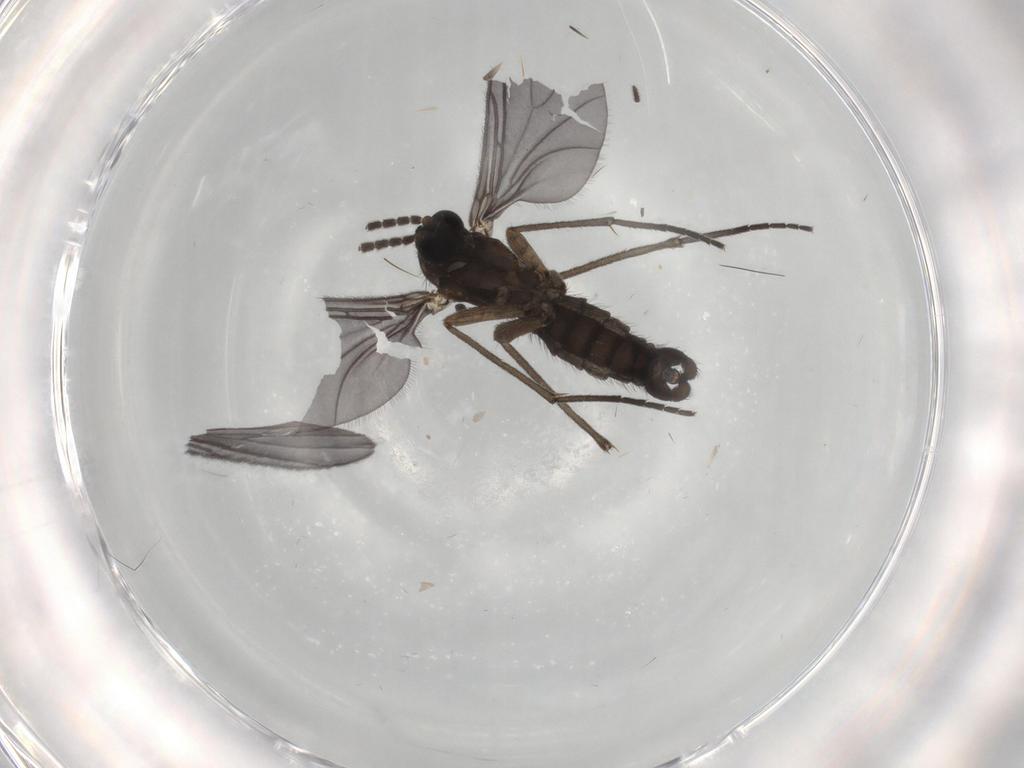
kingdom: Animalia
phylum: Arthropoda
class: Insecta
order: Diptera
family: Sciaridae
